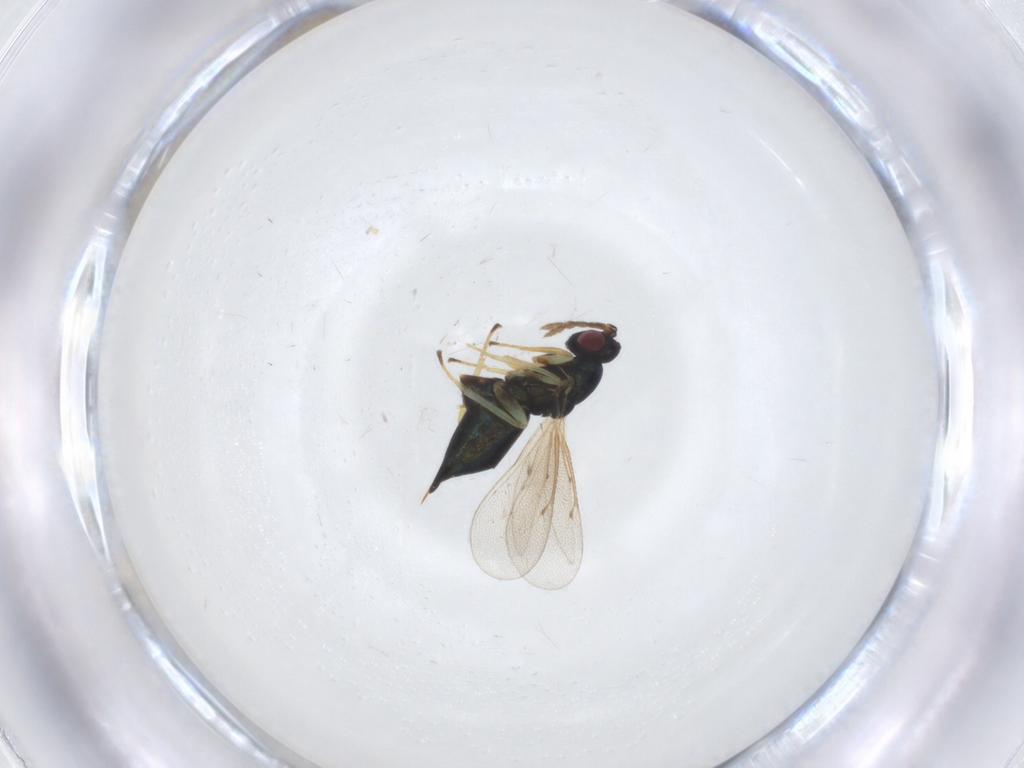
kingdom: Animalia
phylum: Arthropoda
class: Insecta
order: Hymenoptera
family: Eulophidae
